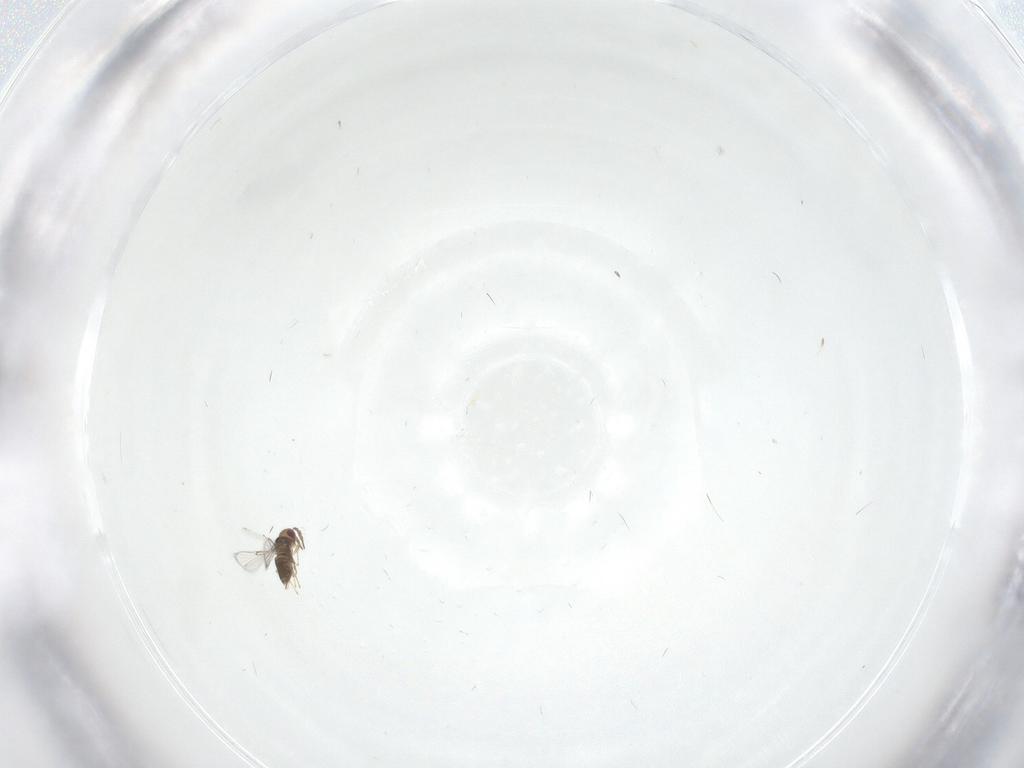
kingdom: Animalia
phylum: Arthropoda
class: Insecta
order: Hymenoptera
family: Trichogrammatidae
